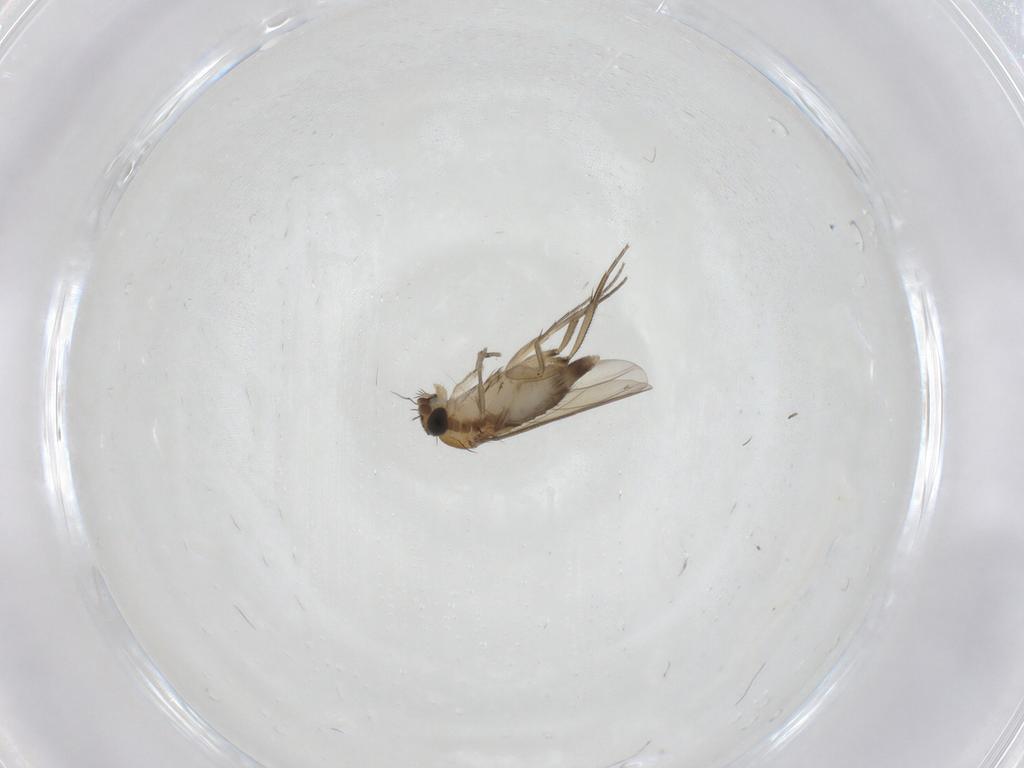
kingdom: Animalia
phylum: Arthropoda
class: Insecta
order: Diptera
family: Phoridae
